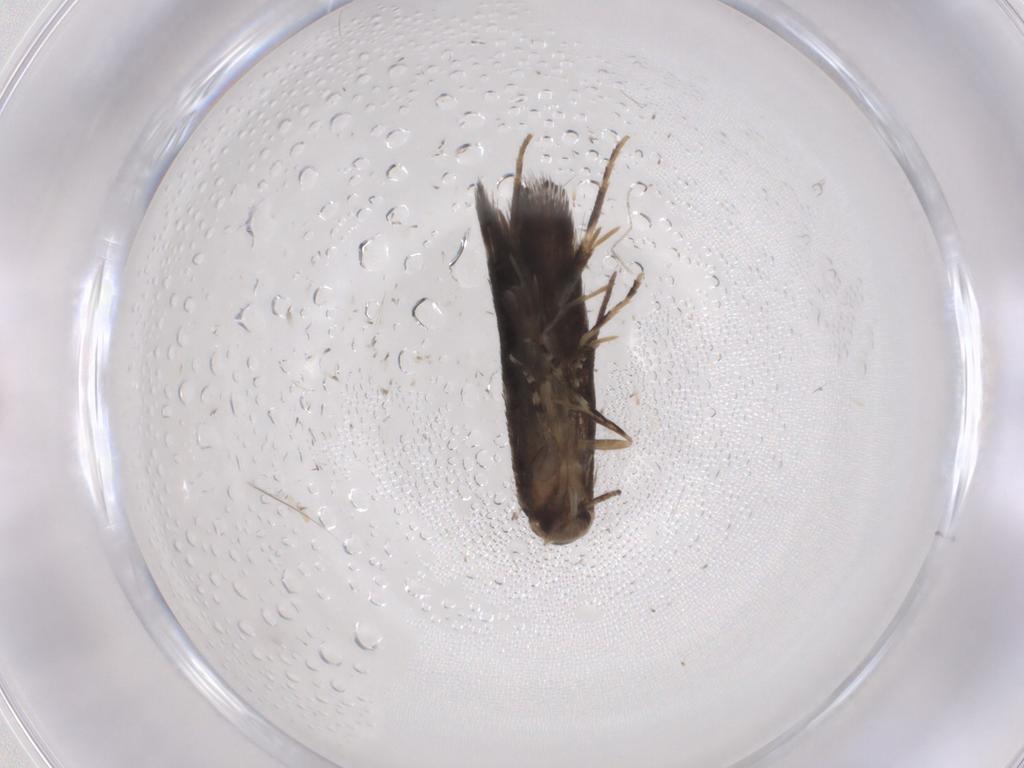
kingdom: Animalia
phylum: Arthropoda
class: Insecta
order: Lepidoptera
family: Elachistidae
